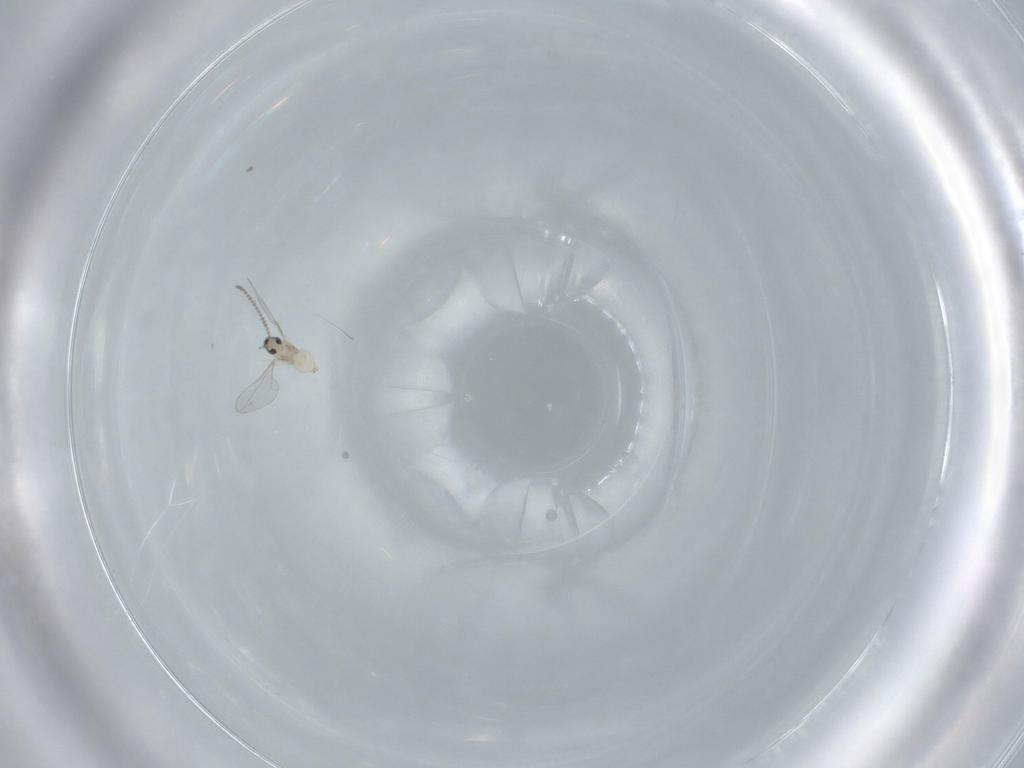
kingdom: Animalia
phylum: Arthropoda
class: Insecta
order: Diptera
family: Cecidomyiidae
